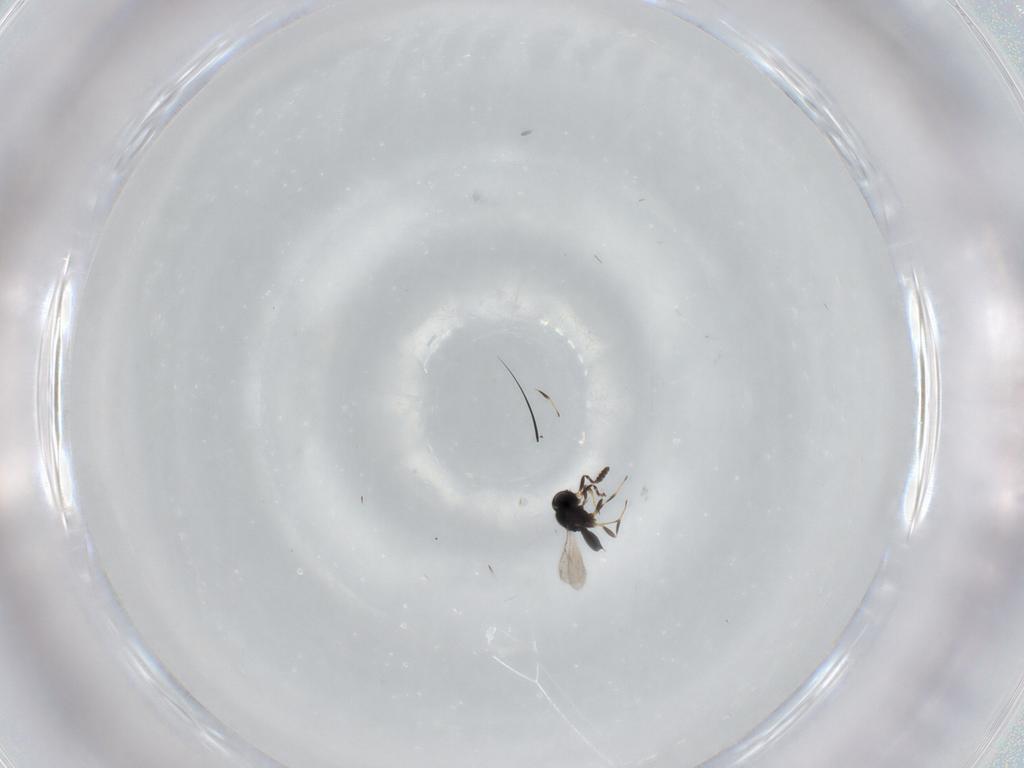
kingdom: Animalia
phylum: Arthropoda
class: Insecta
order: Hymenoptera
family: Scelionidae
